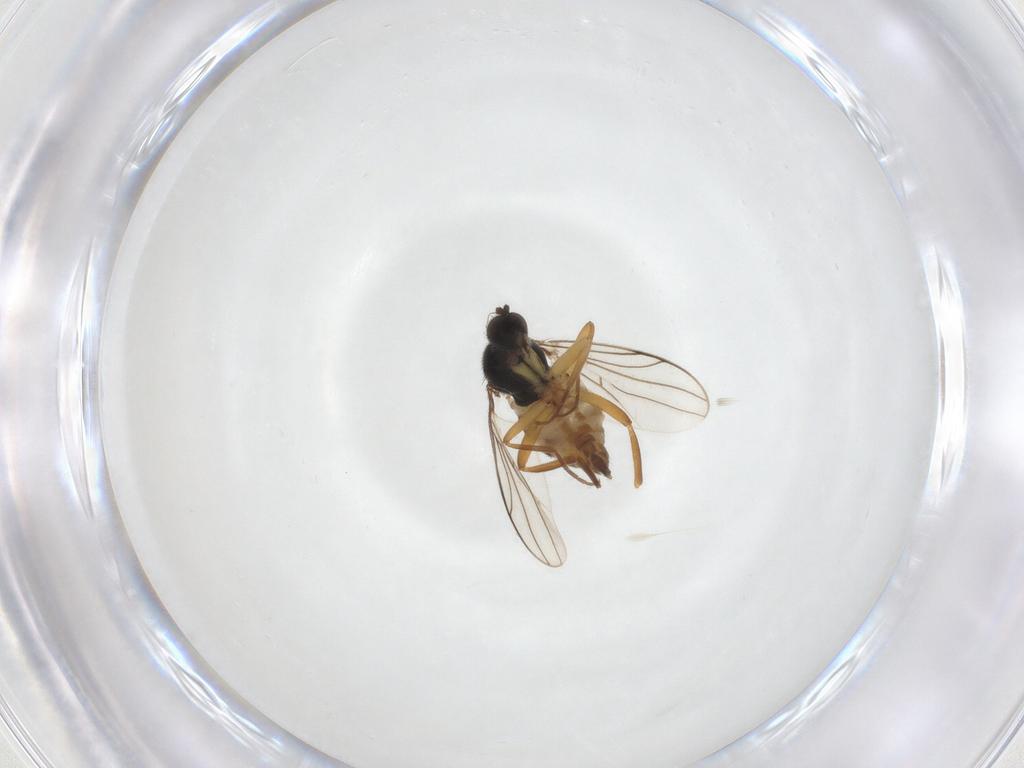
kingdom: Animalia
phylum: Arthropoda
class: Insecta
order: Diptera
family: Hybotidae
